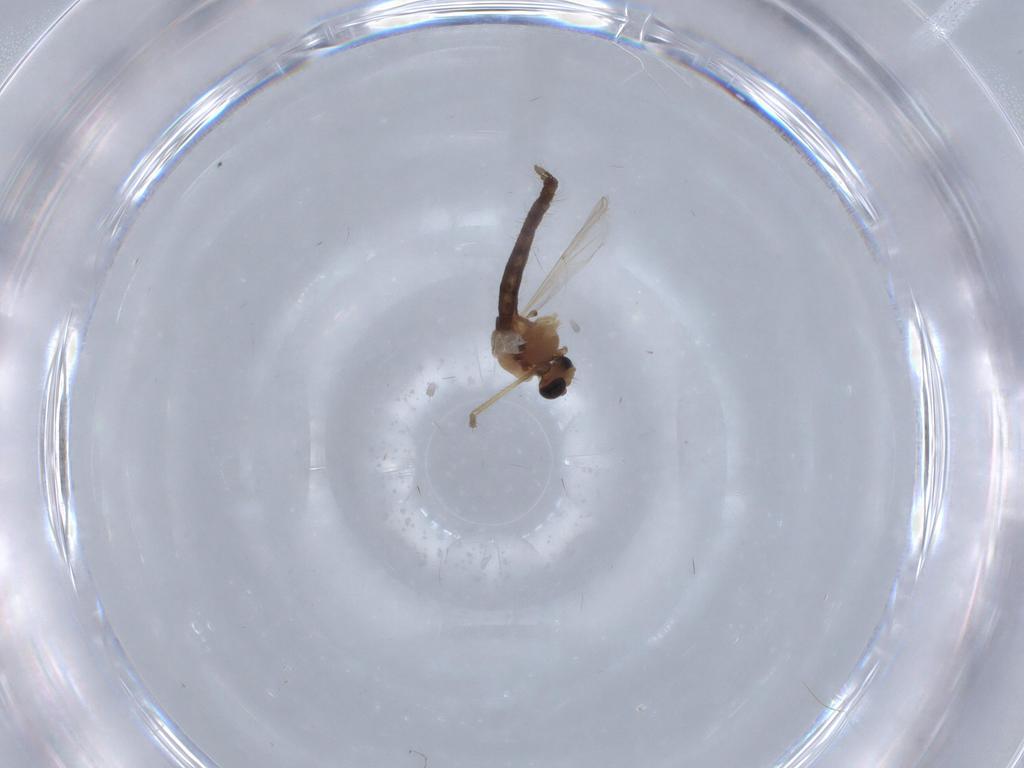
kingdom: Animalia
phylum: Arthropoda
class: Insecta
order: Diptera
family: Chironomidae
